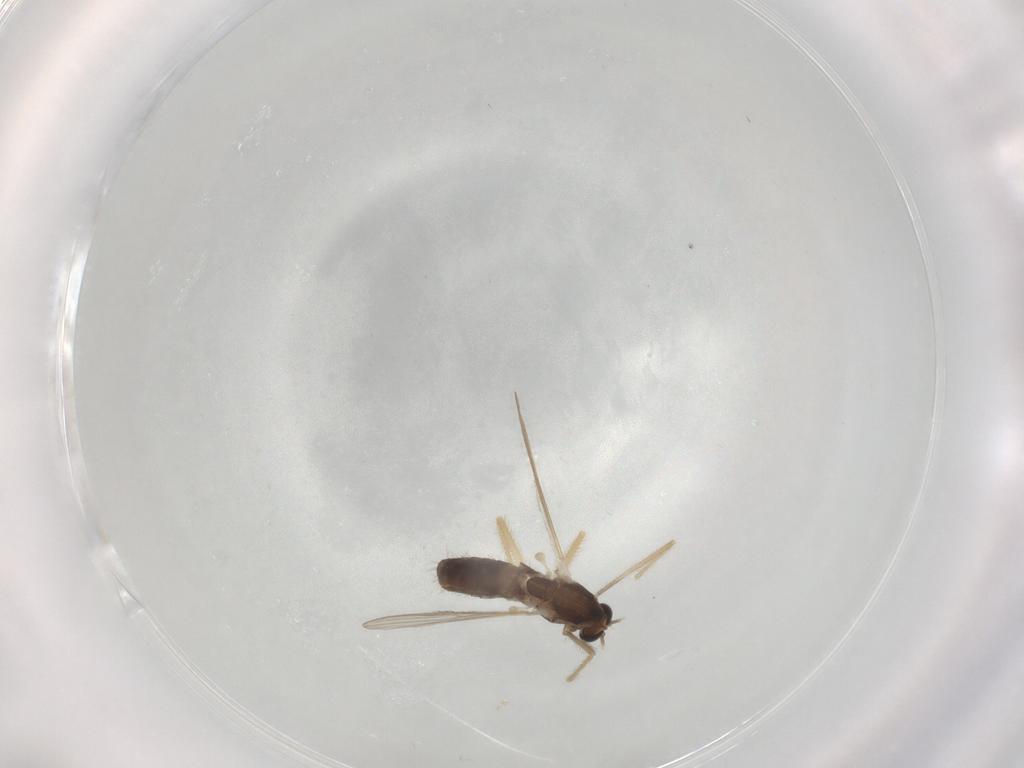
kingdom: Animalia
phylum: Arthropoda
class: Insecta
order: Diptera
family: Chironomidae
